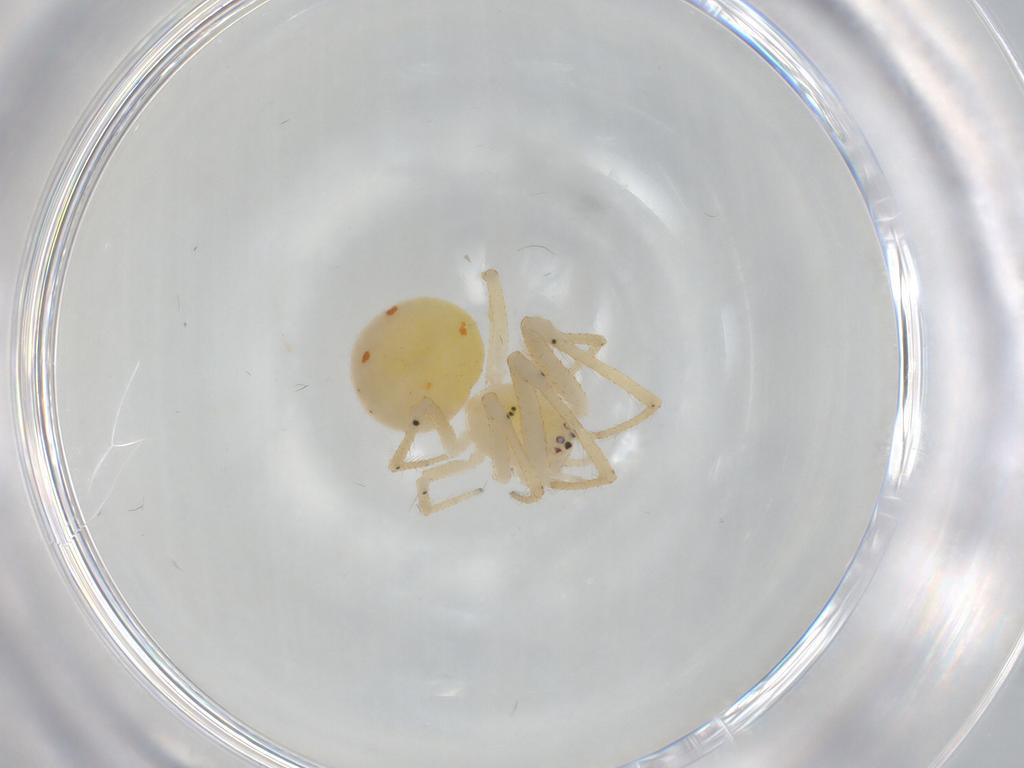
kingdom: Animalia
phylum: Arthropoda
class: Arachnida
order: Araneae
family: Theridiidae
